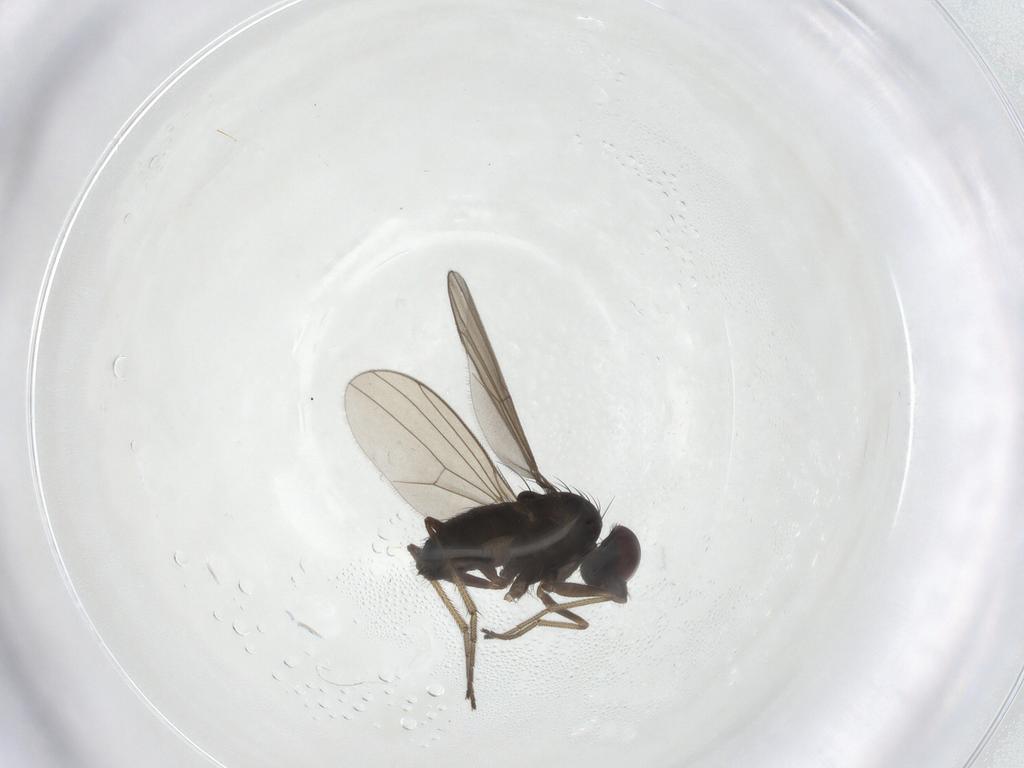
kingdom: Animalia
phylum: Arthropoda
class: Insecta
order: Diptera
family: Dolichopodidae
